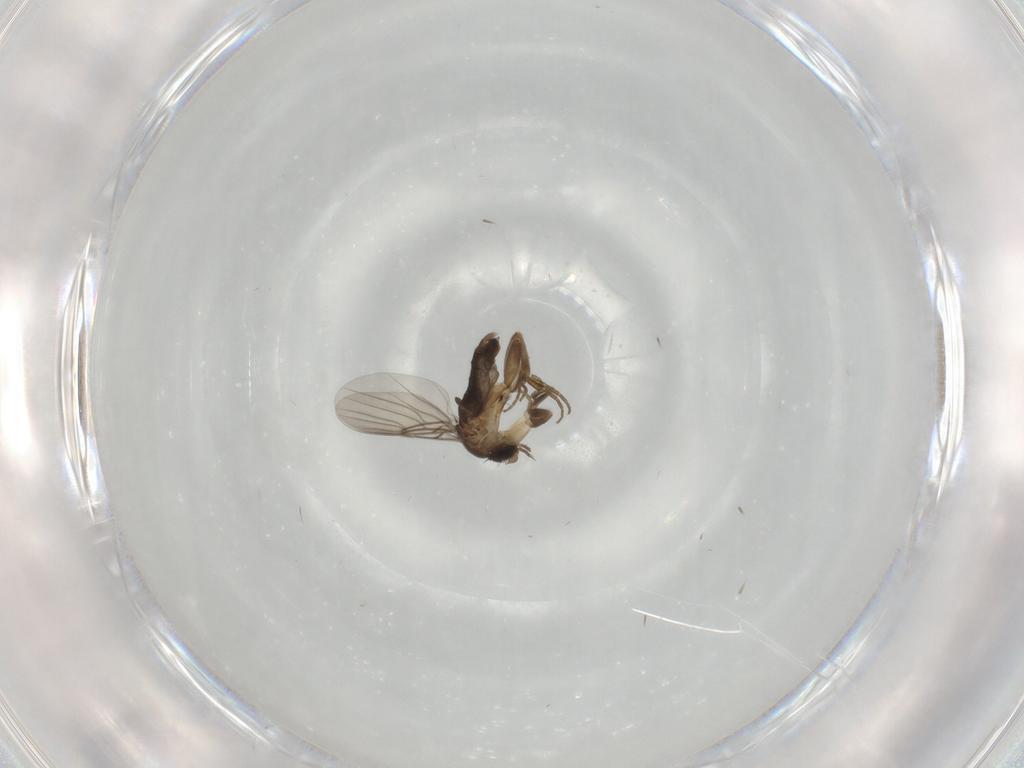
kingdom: Animalia
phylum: Arthropoda
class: Insecta
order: Diptera
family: Phoridae
